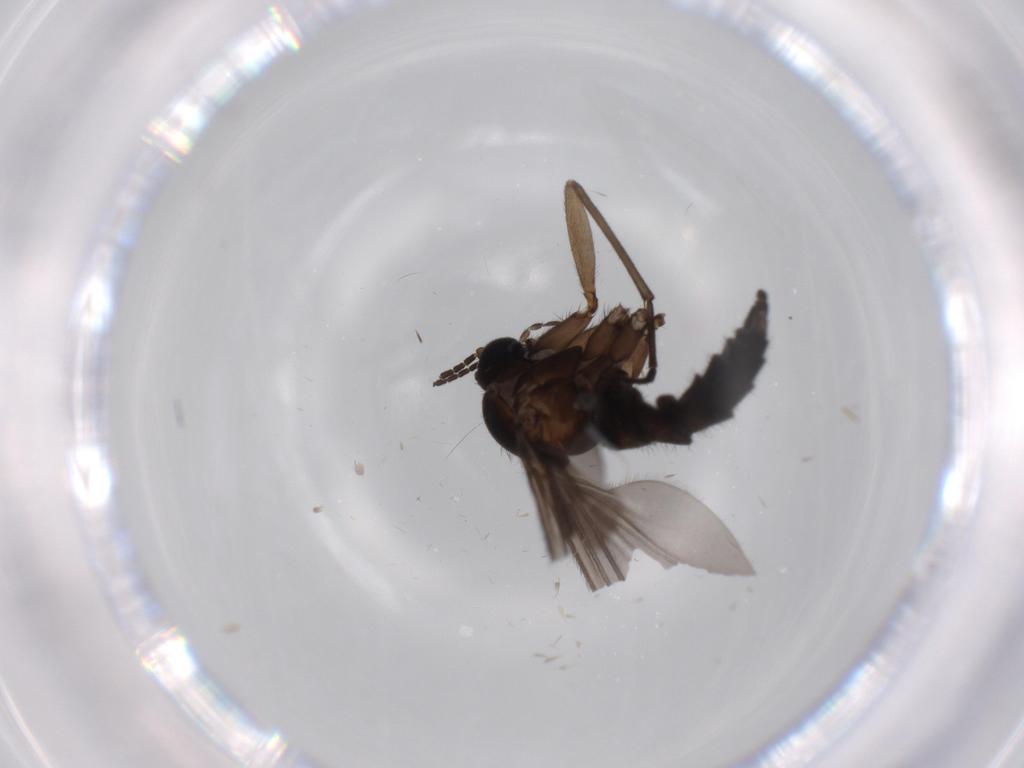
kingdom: Animalia
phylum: Arthropoda
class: Insecta
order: Diptera
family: Sciaridae
